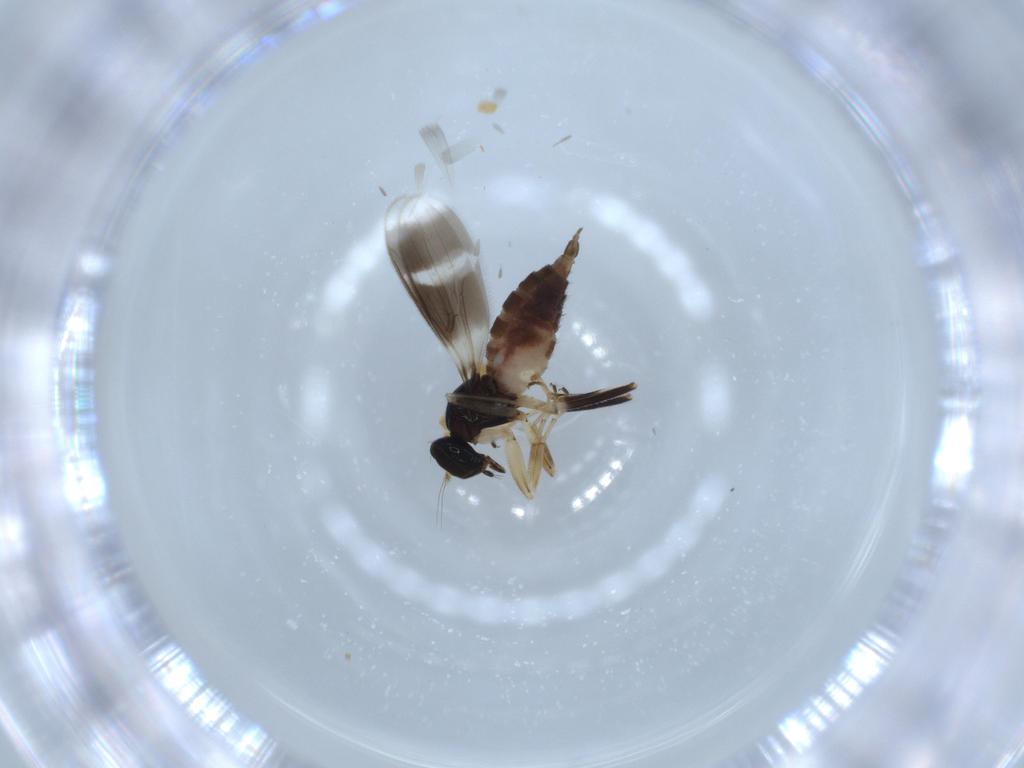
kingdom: Animalia
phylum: Arthropoda
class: Insecta
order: Diptera
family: Hybotidae
